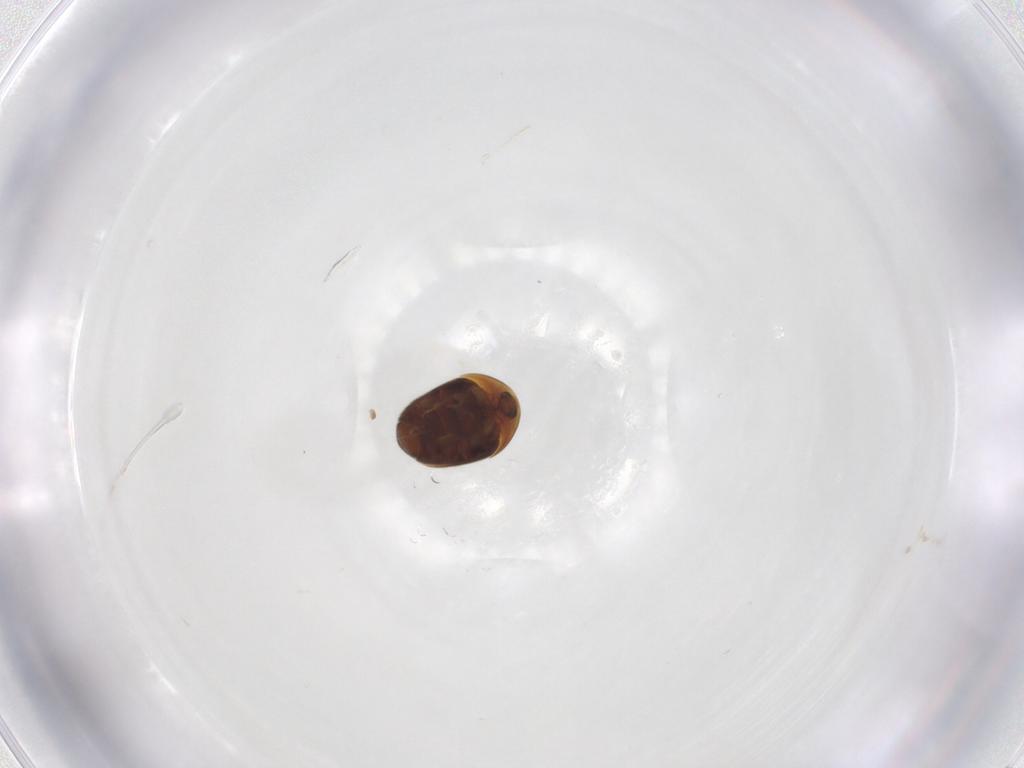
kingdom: Animalia
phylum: Arthropoda
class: Insecta
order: Coleoptera
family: Corylophidae
